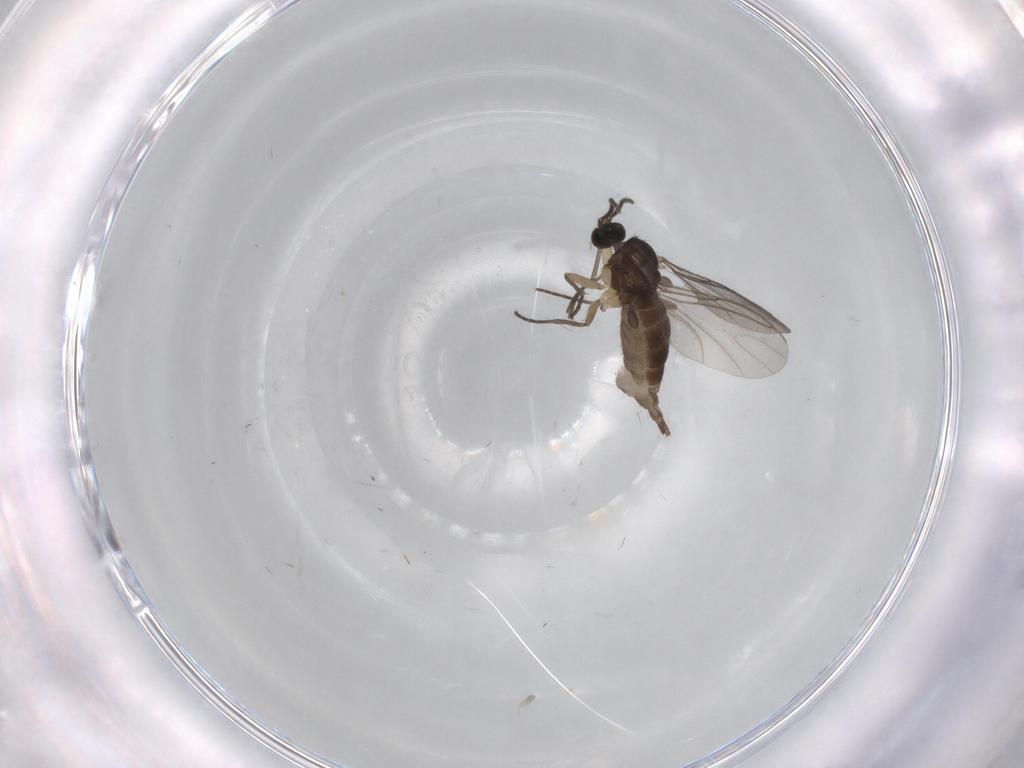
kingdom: Animalia
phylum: Arthropoda
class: Insecta
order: Diptera
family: Sciaridae
